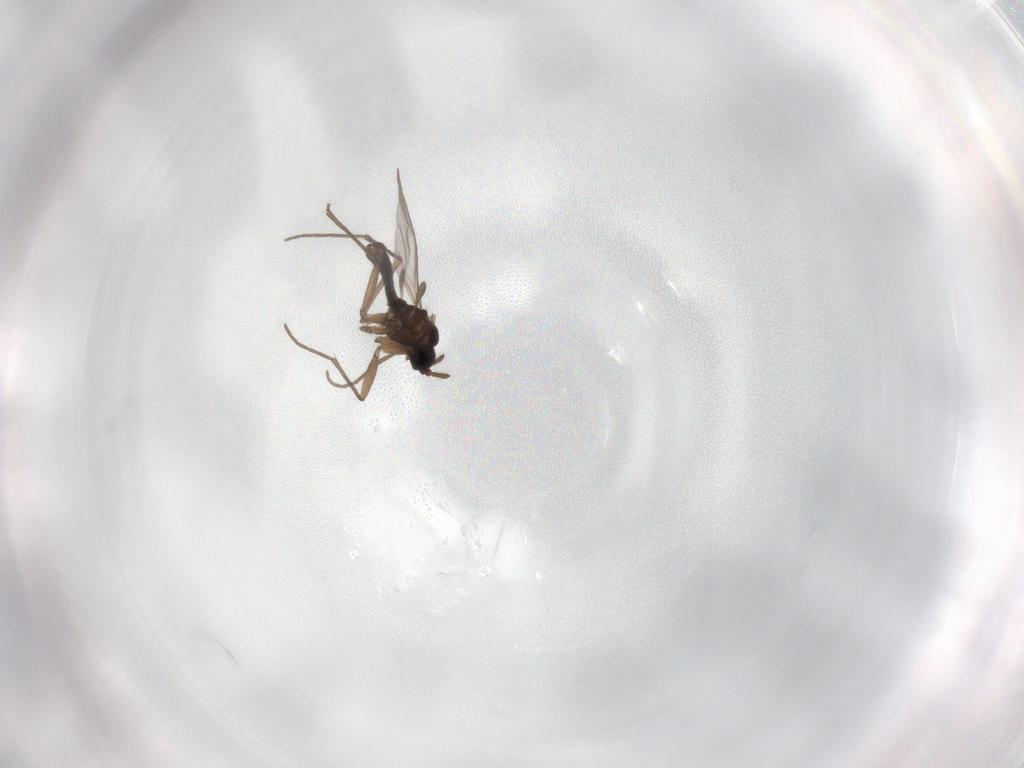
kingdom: Animalia
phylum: Arthropoda
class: Insecta
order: Diptera
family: Sciaridae
